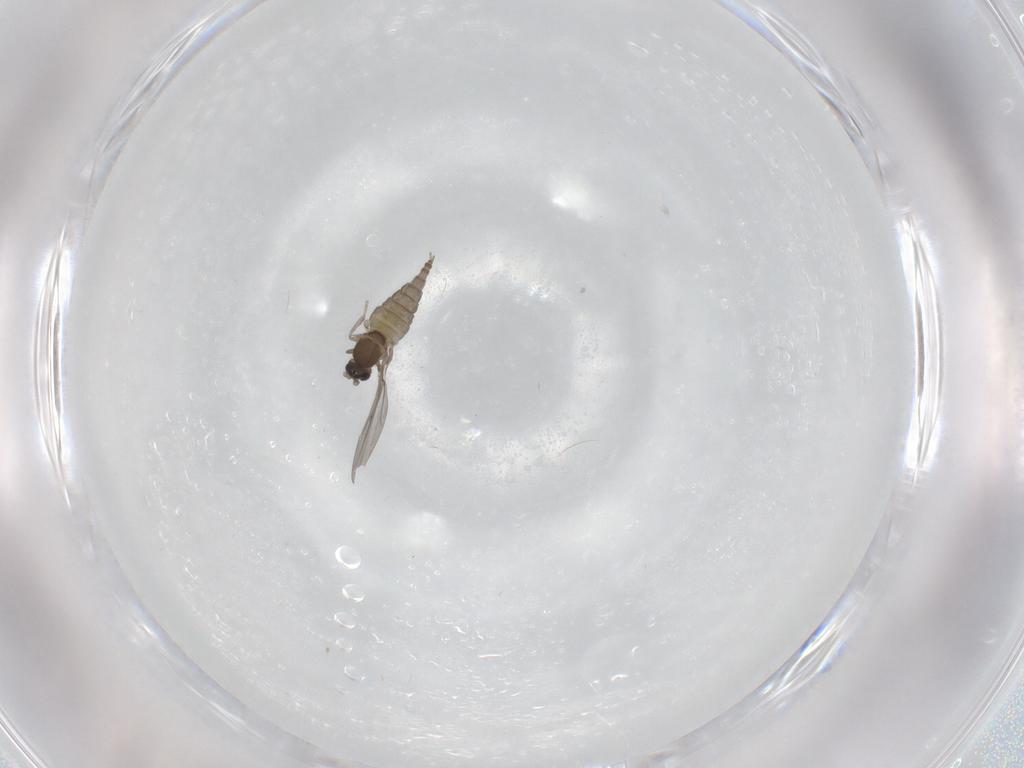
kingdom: Animalia
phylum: Arthropoda
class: Insecta
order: Diptera
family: Cecidomyiidae
